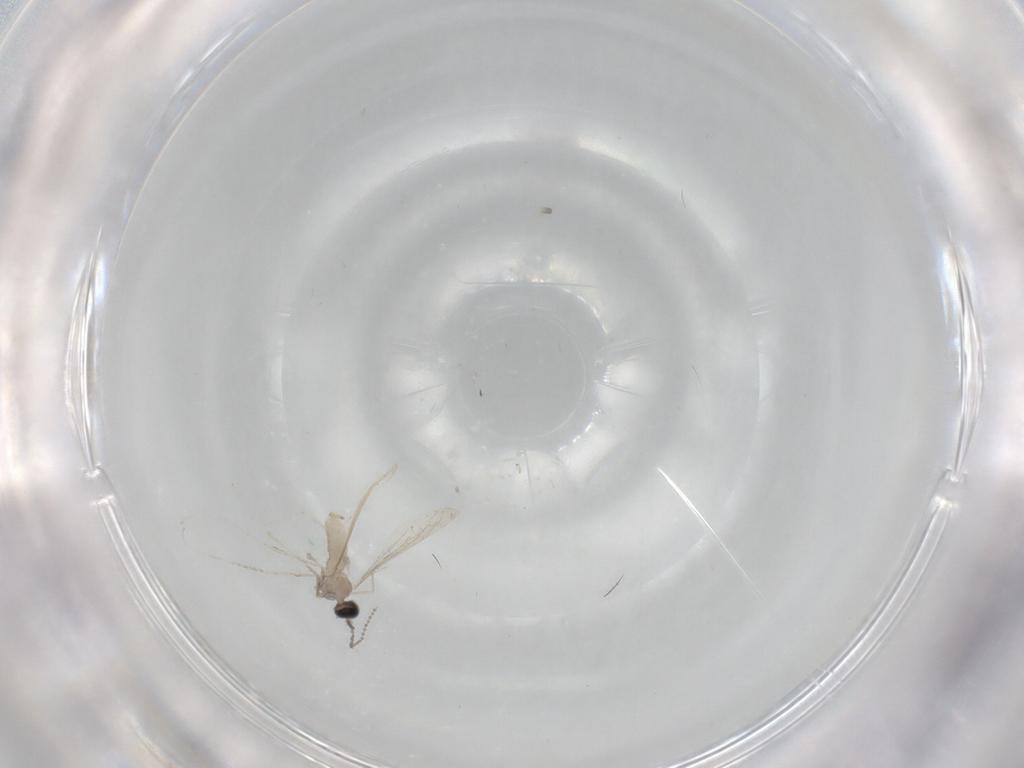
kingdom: Animalia
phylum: Arthropoda
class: Insecta
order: Diptera
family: Cecidomyiidae
